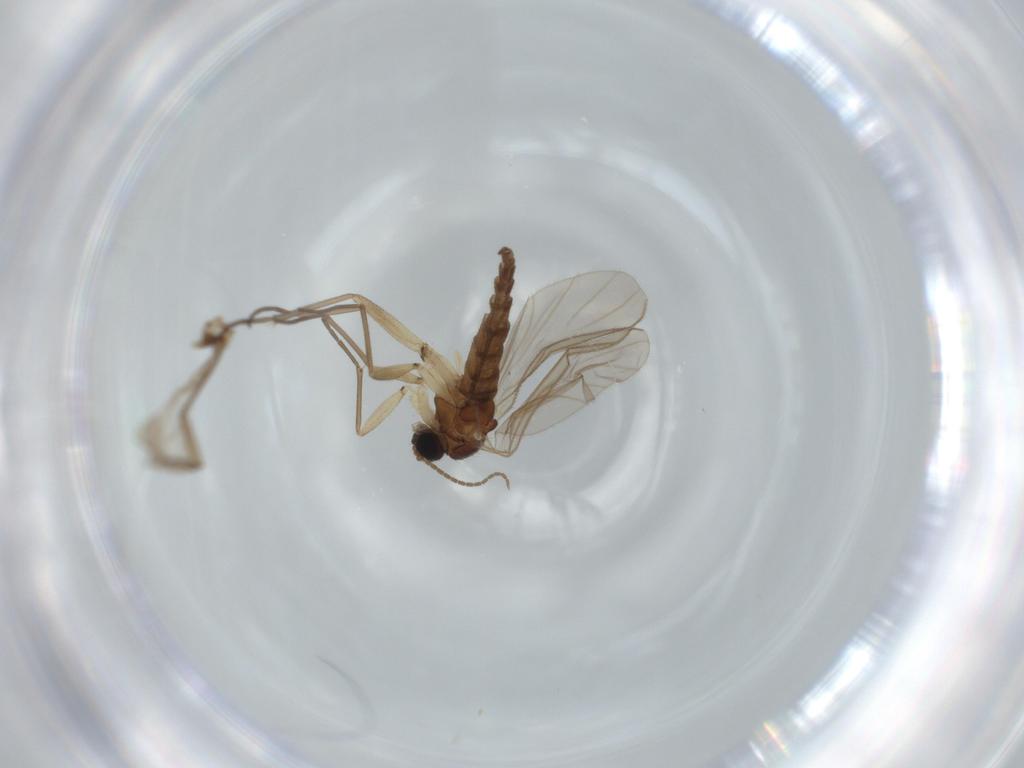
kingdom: Animalia
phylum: Arthropoda
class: Insecta
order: Diptera
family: Sciaridae
